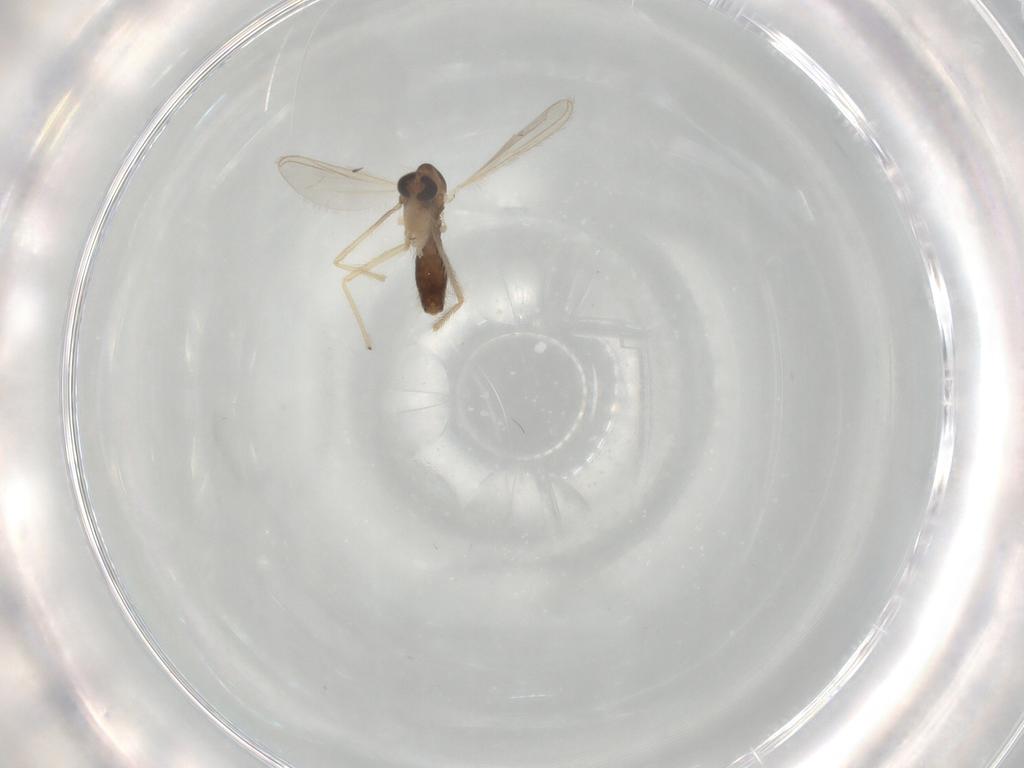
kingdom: Animalia
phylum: Arthropoda
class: Insecta
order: Diptera
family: Chironomidae
